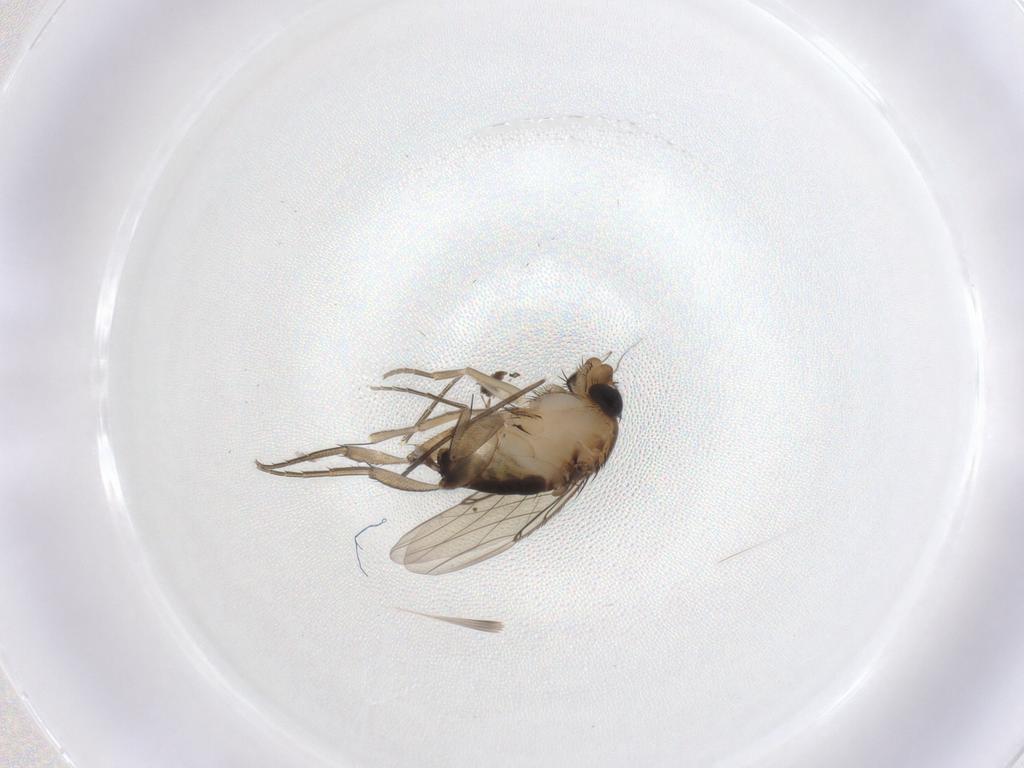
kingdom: Animalia
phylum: Arthropoda
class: Insecta
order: Diptera
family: Phoridae
